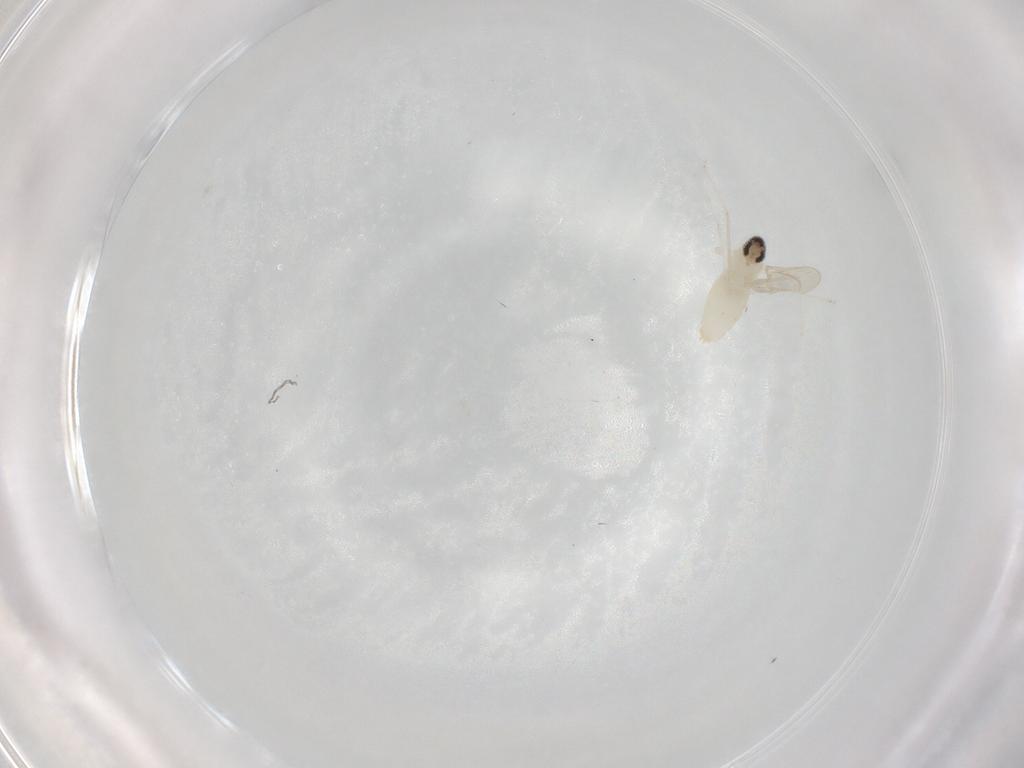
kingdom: Animalia
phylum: Arthropoda
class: Insecta
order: Diptera
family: Cecidomyiidae
